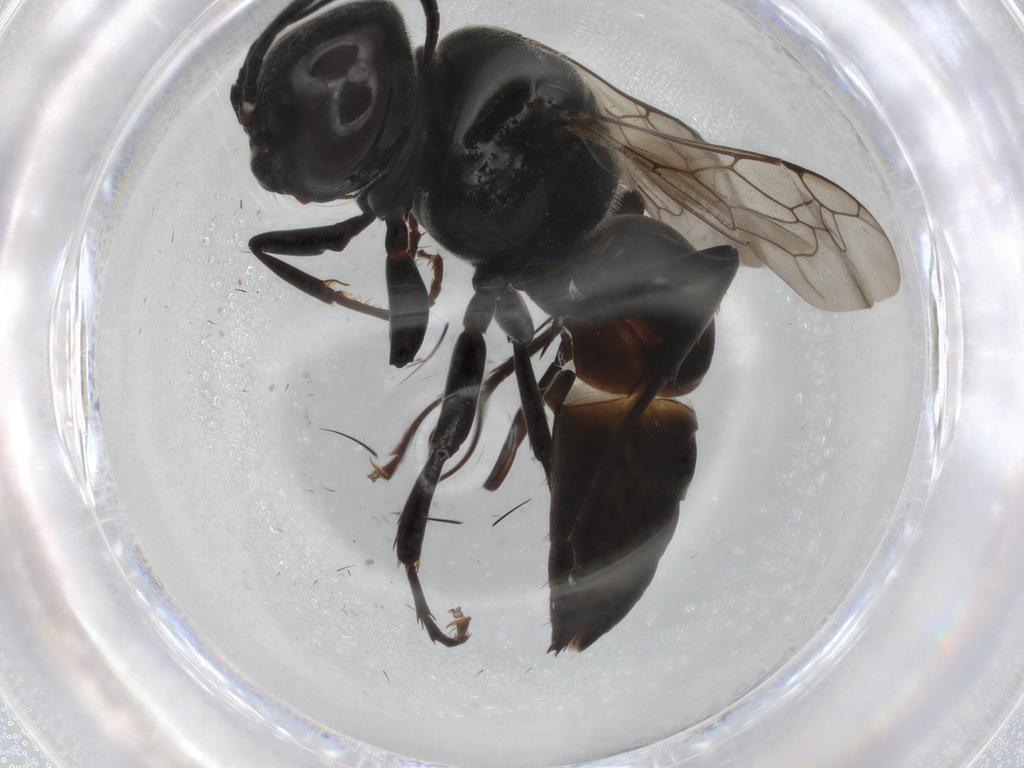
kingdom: Animalia
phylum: Arthropoda
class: Insecta
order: Hymenoptera
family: Crabronidae
